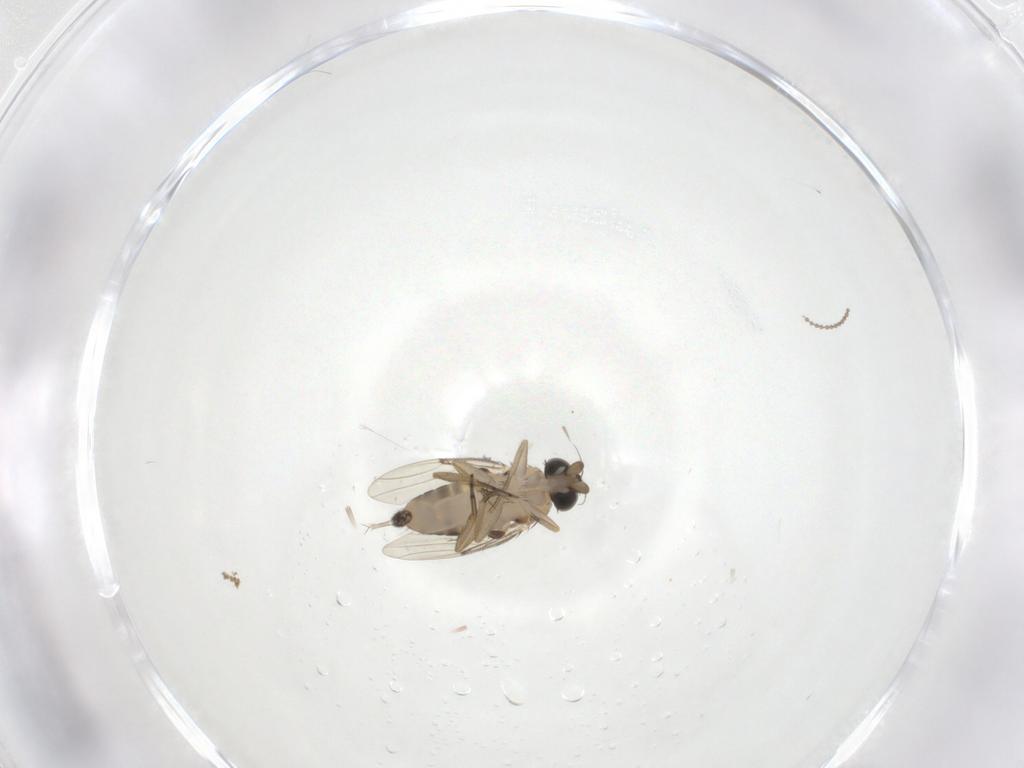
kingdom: Animalia
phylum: Arthropoda
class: Insecta
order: Diptera
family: Phoridae
